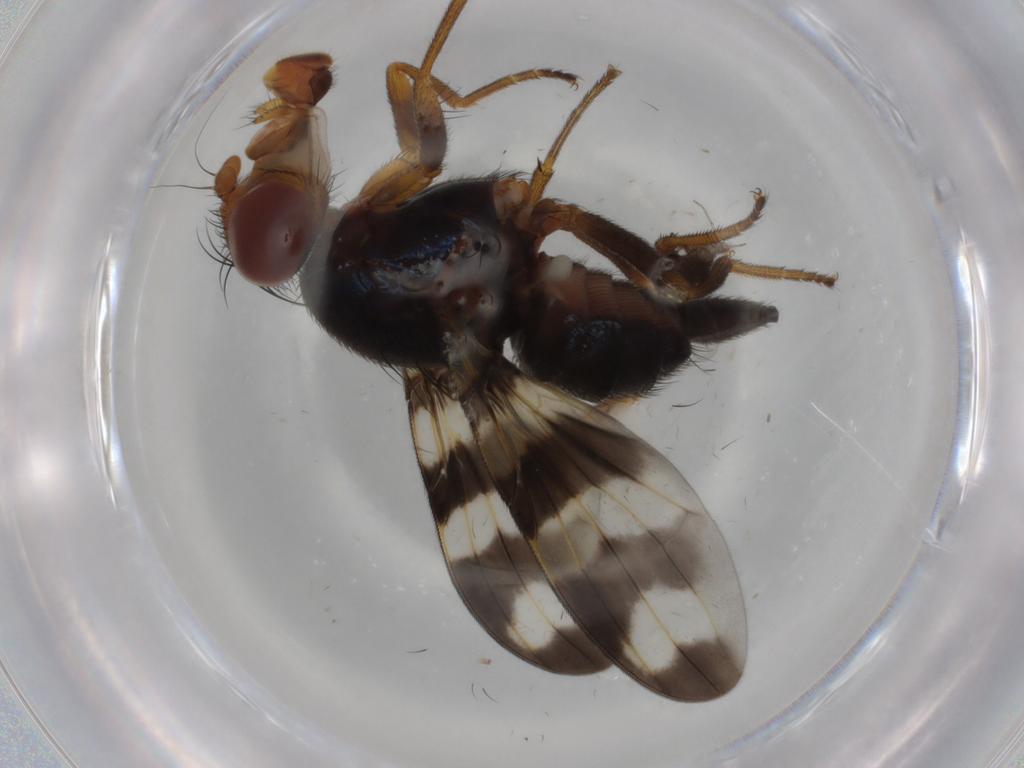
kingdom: Animalia
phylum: Arthropoda
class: Insecta
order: Diptera
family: Dolichopodidae
